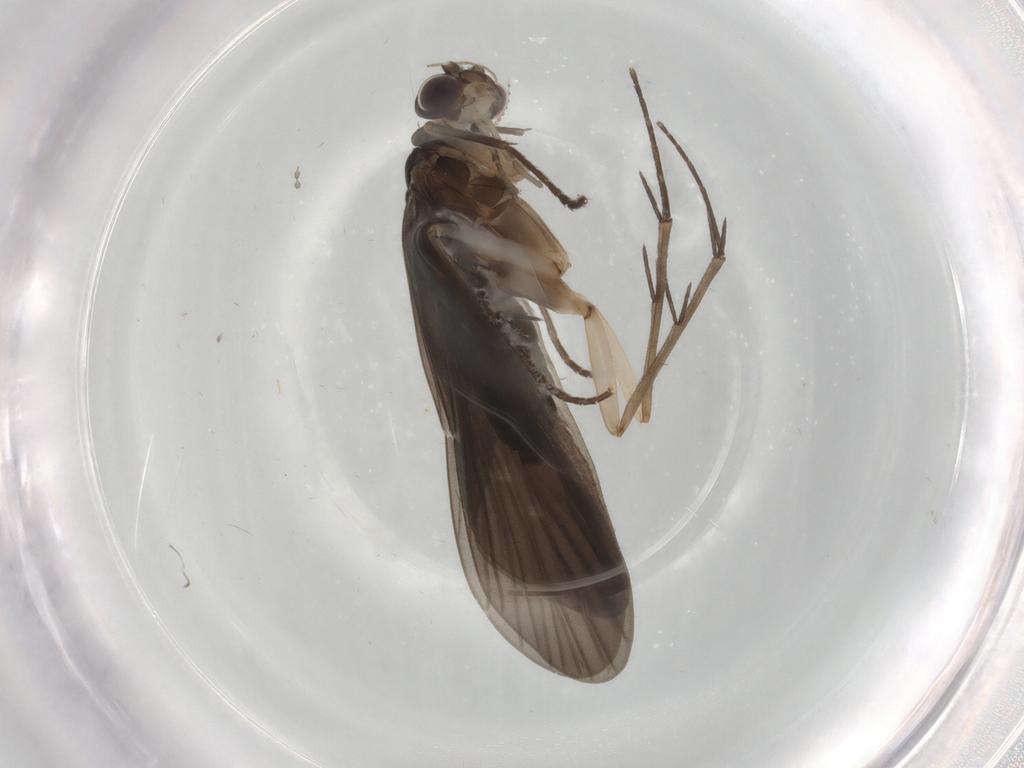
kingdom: Animalia
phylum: Arthropoda
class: Insecta
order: Trichoptera
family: Philopotamidae
